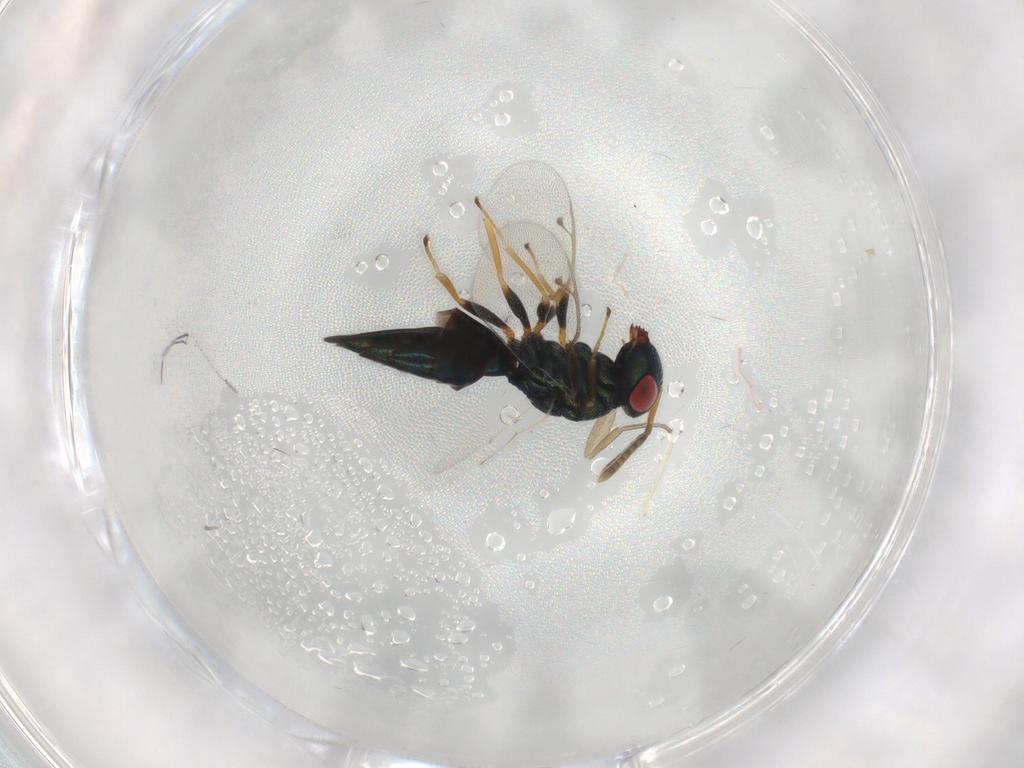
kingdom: Animalia
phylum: Arthropoda
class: Insecta
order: Hymenoptera
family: Pteromalidae
